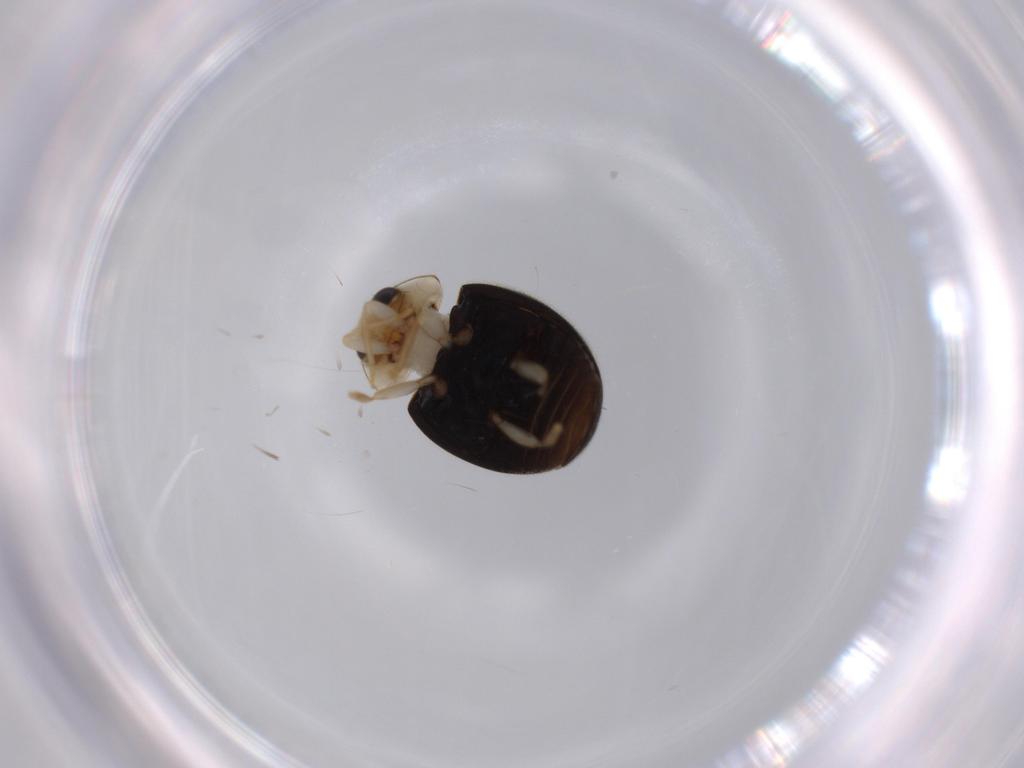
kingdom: Animalia
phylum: Arthropoda
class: Insecta
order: Coleoptera
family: Coccinellidae
